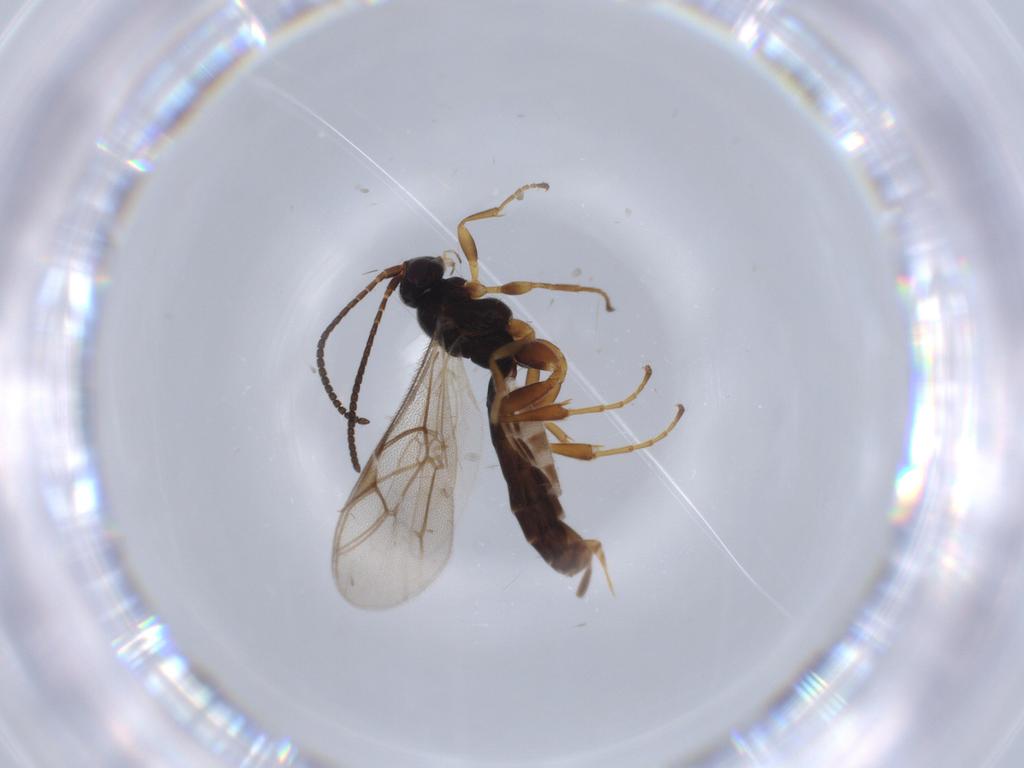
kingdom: Animalia
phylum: Arthropoda
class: Insecta
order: Hymenoptera
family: Ichneumonidae
